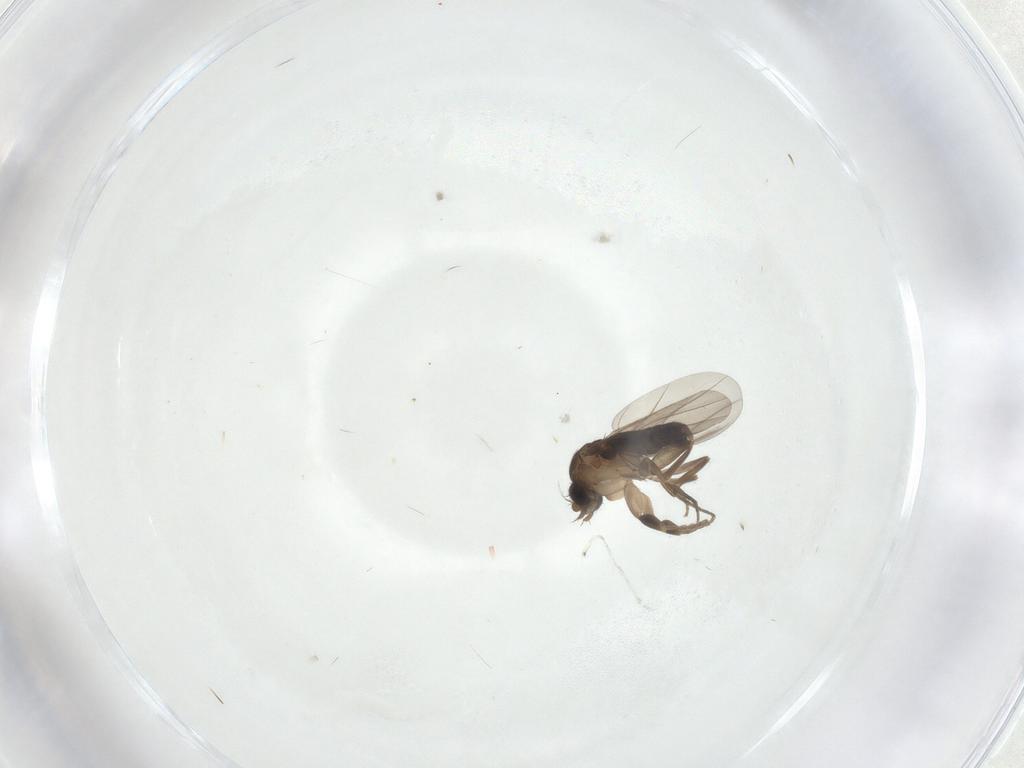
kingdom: Animalia
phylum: Arthropoda
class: Insecta
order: Diptera
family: Phoridae
